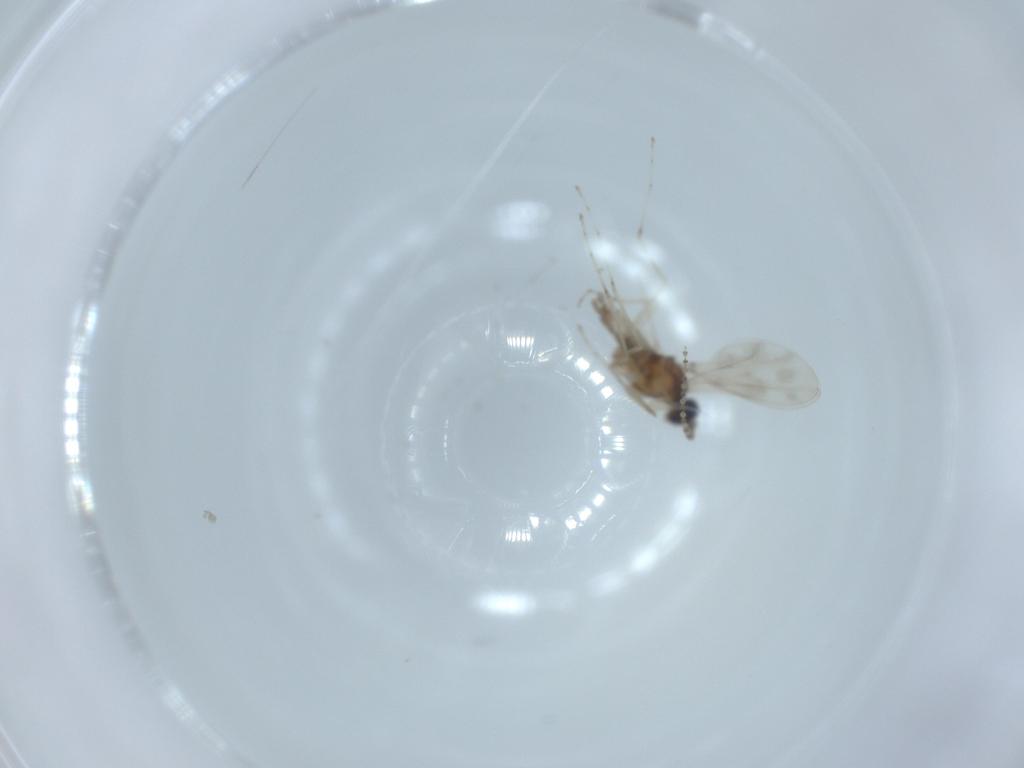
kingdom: Animalia
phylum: Arthropoda
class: Insecta
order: Diptera
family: Cecidomyiidae
